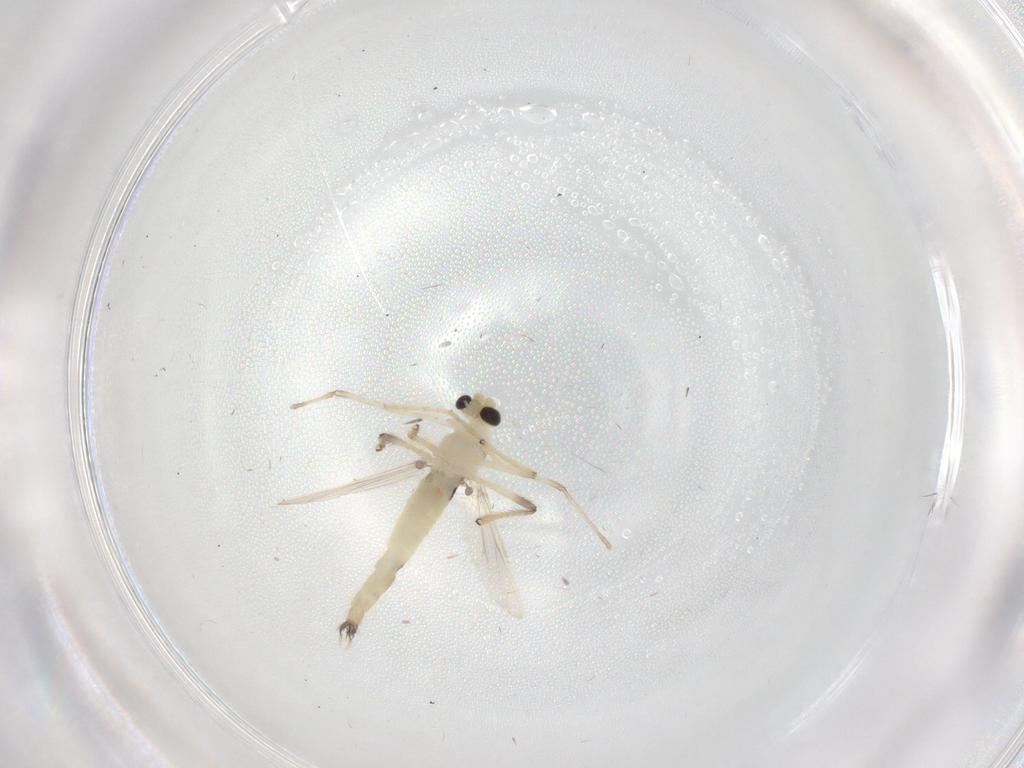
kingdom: Animalia
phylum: Arthropoda
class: Insecta
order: Diptera
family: Chironomidae
